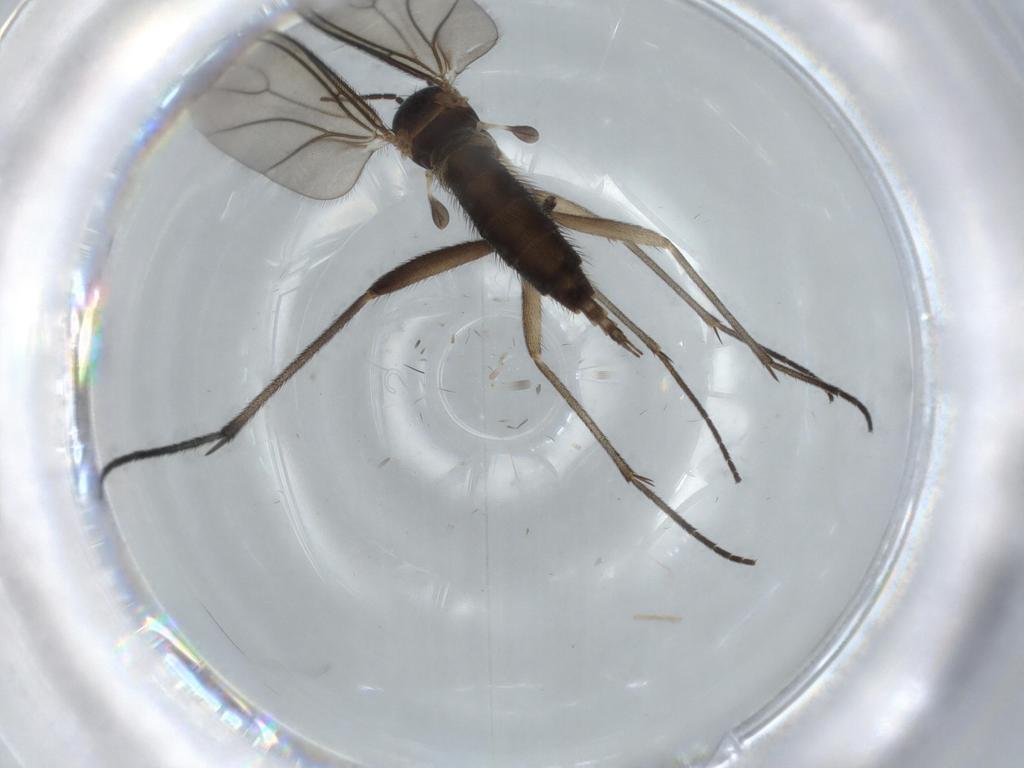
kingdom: Animalia
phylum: Arthropoda
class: Insecta
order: Diptera
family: Sciaridae
